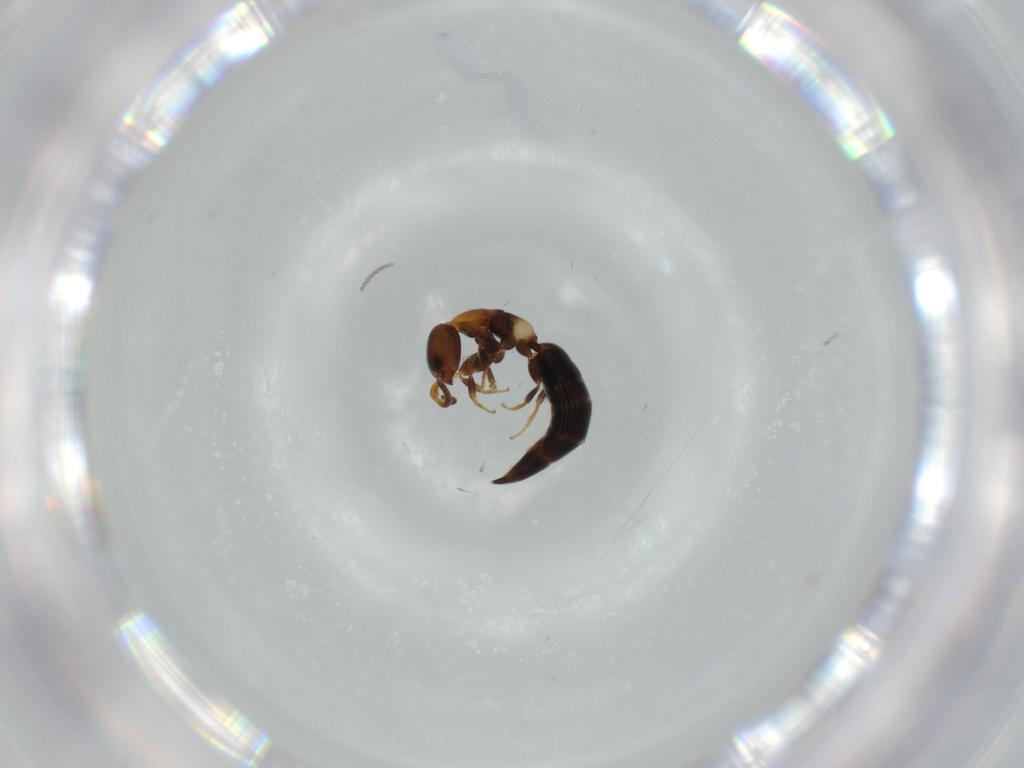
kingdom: Animalia
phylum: Arthropoda
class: Insecta
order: Hymenoptera
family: Bethylidae
